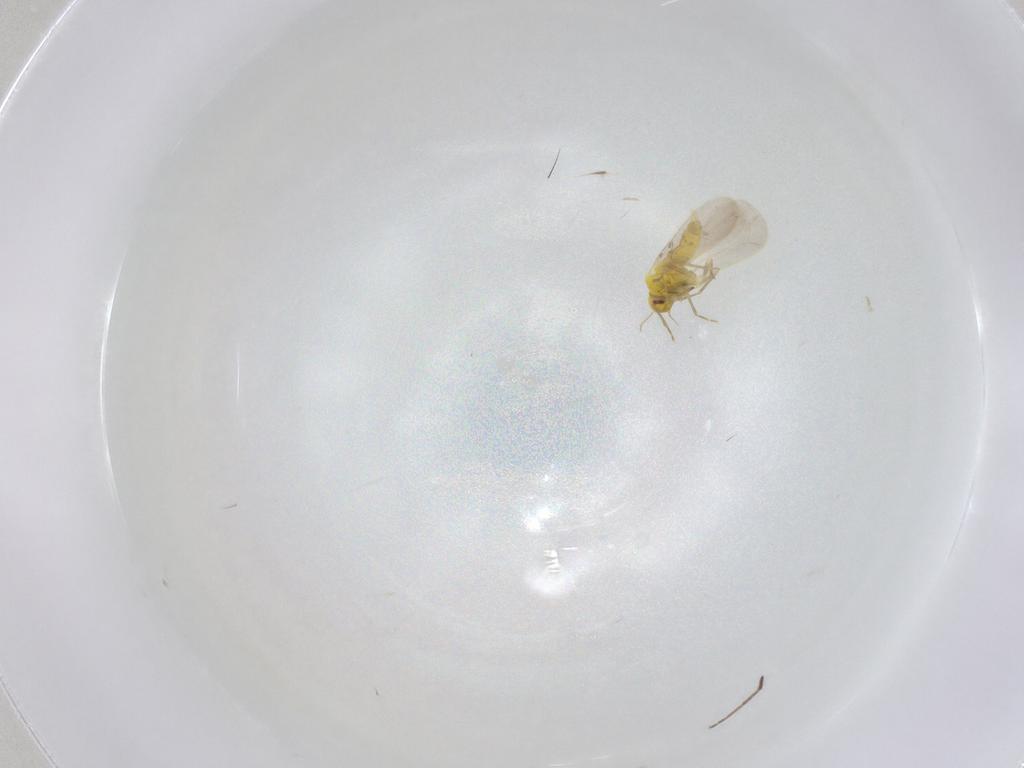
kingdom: Animalia
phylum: Arthropoda
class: Insecta
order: Hemiptera
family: Aleyrodidae
